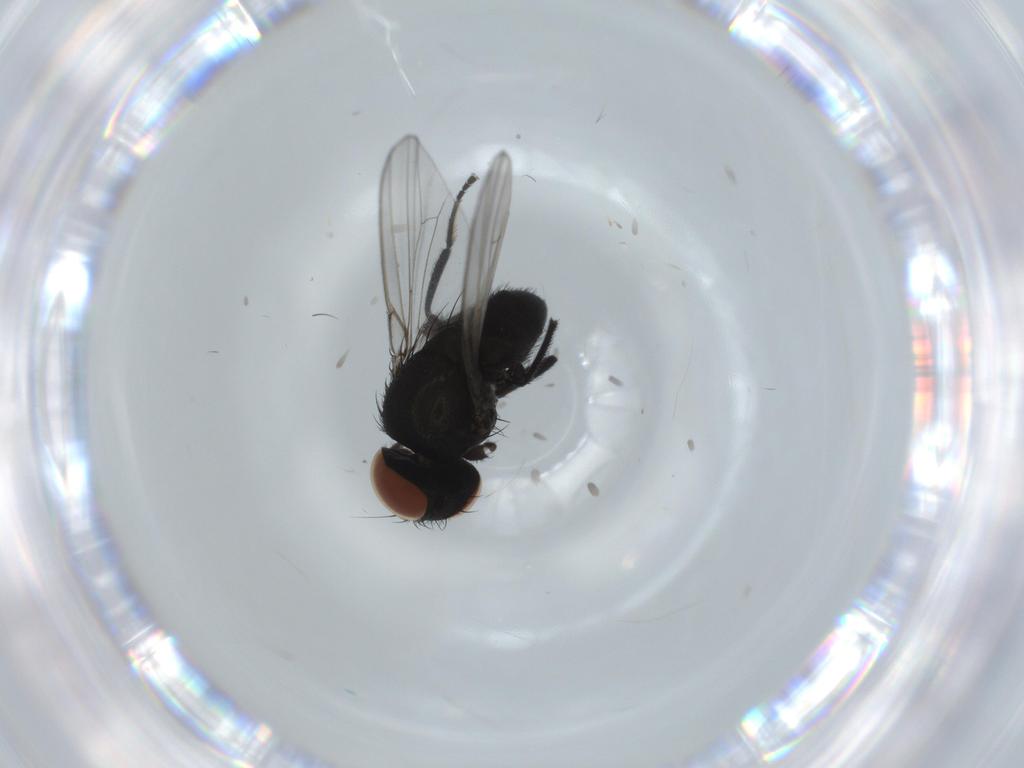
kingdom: Animalia
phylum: Arthropoda
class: Insecta
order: Diptera
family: Milichiidae
